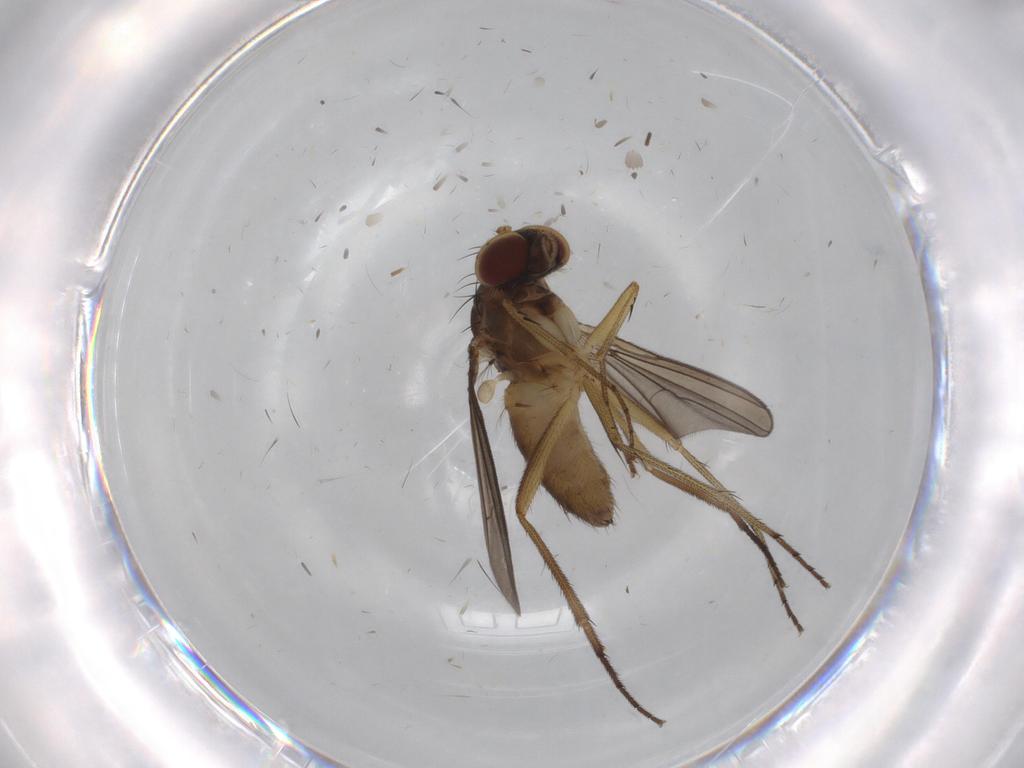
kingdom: Animalia
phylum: Arthropoda
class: Insecta
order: Diptera
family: Dolichopodidae
